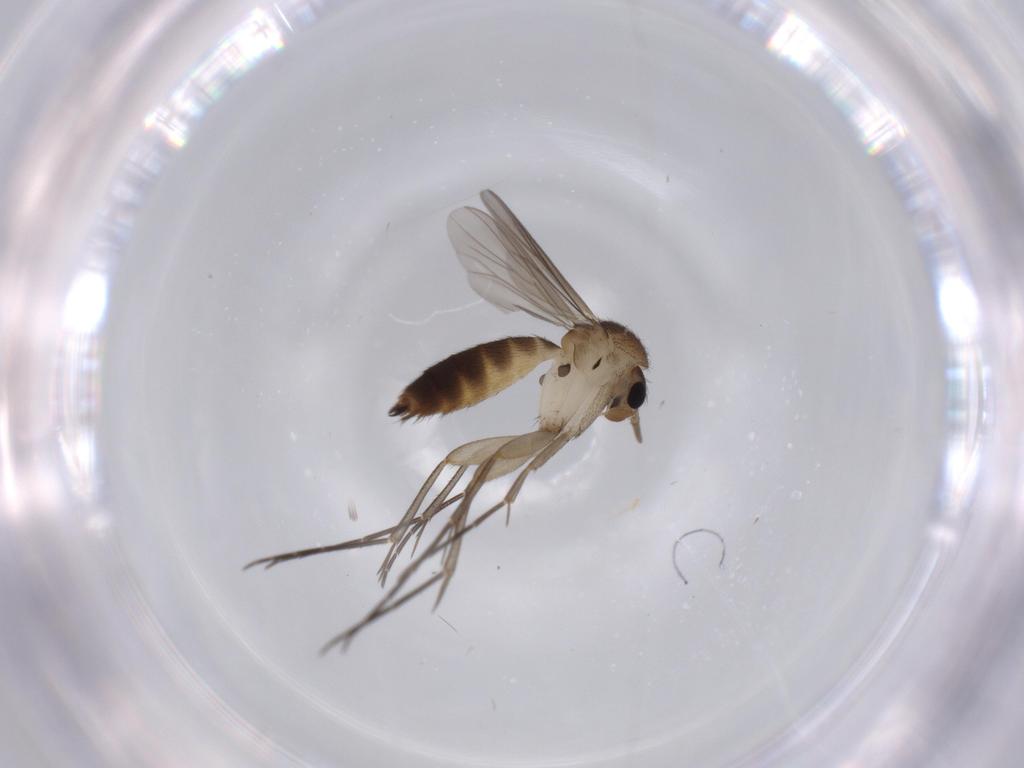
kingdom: Animalia
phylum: Arthropoda
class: Insecta
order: Diptera
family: Mycetophilidae
